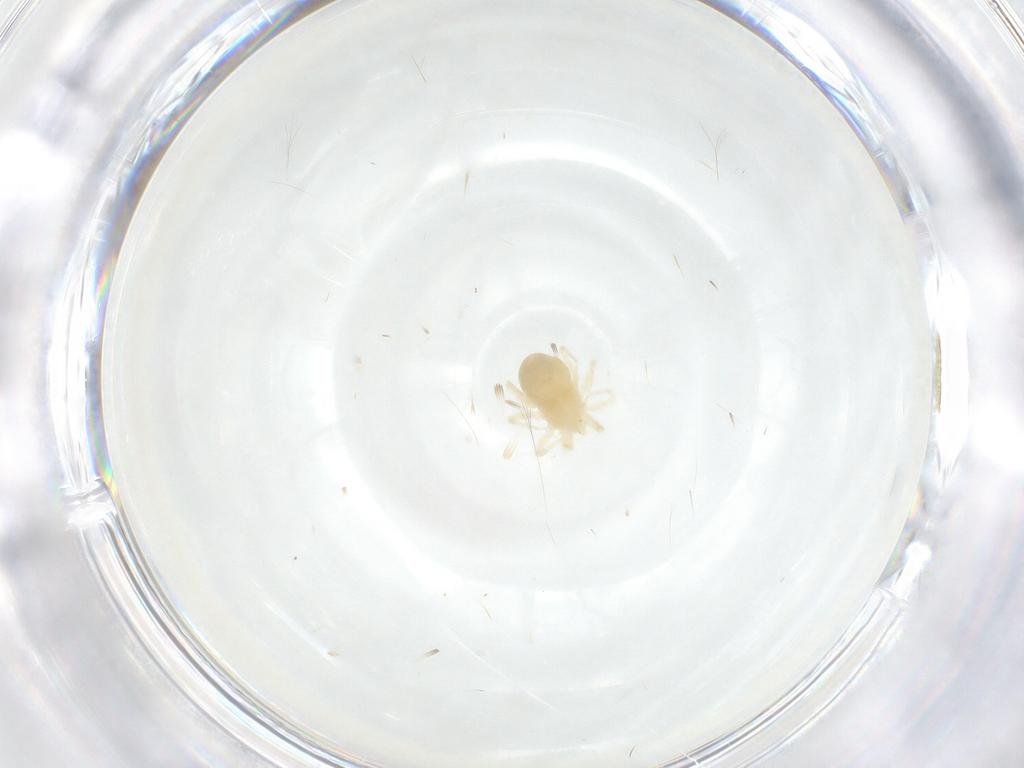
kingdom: Animalia
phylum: Arthropoda
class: Arachnida
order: Trombidiformes
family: Anystidae
